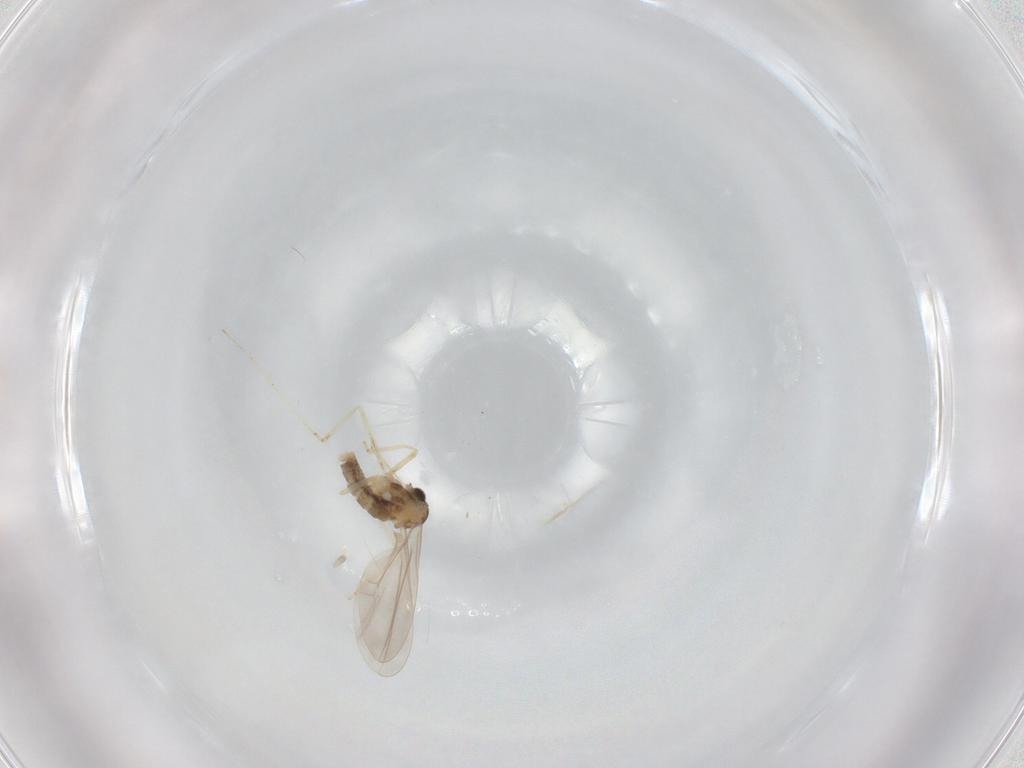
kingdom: Animalia
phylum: Arthropoda
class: Insecta
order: Diptera
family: Cecidomyiidae
